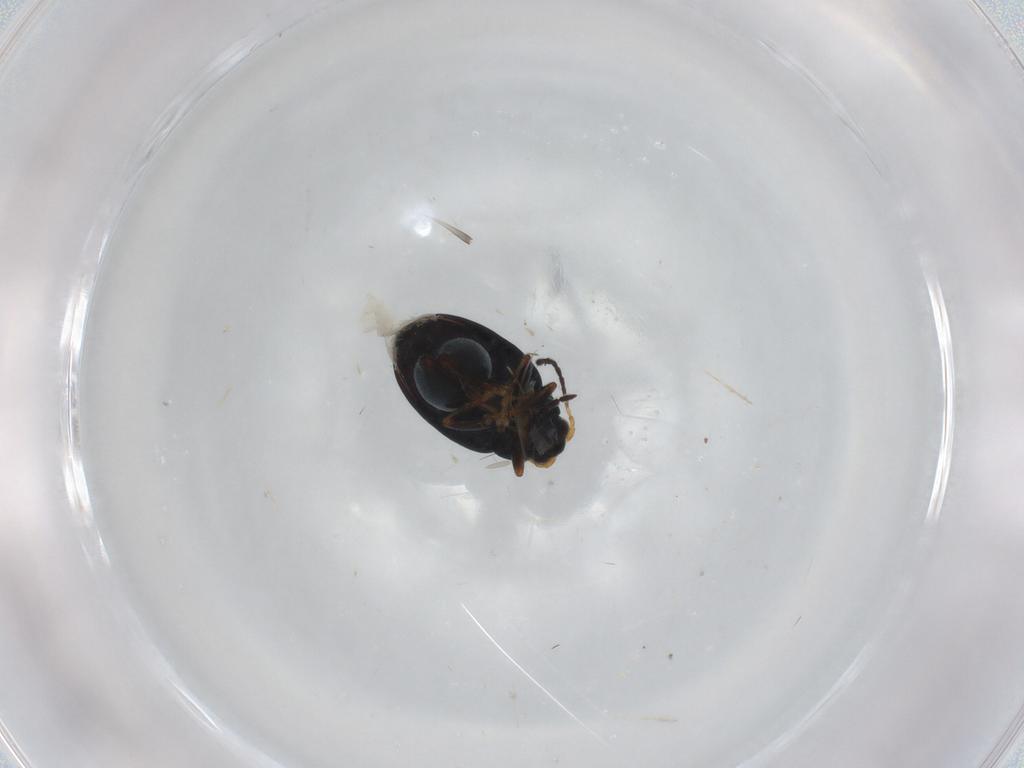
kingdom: Animalia
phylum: Arthropoda
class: Insecta
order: Coleoptera
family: Chrysomelidae
